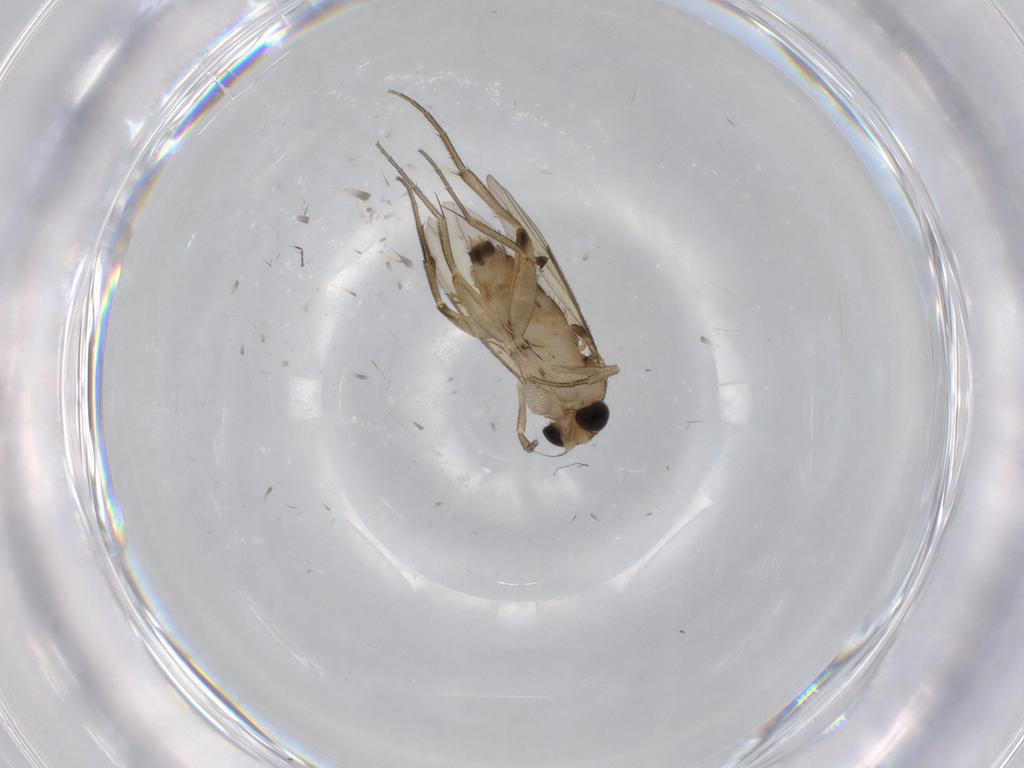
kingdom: Animalia
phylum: Arthropoda
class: Insecta
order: Diptera
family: Phoridae
